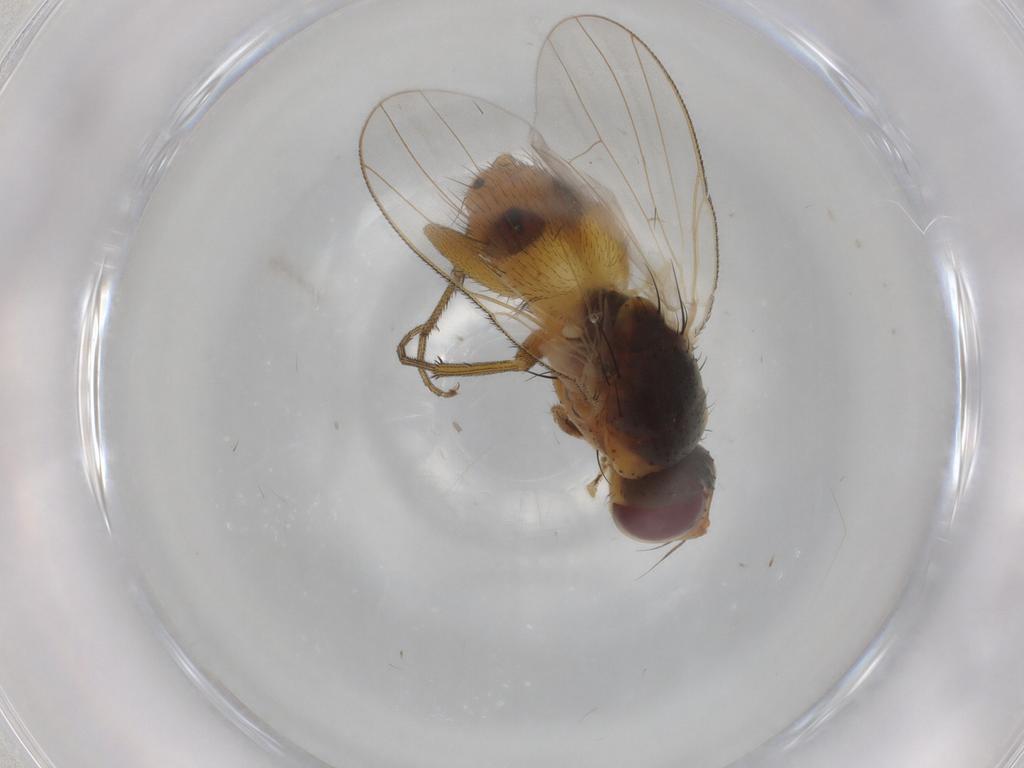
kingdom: Animalia
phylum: Arthropoda
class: Insecta
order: Diptera
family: Muscidae
